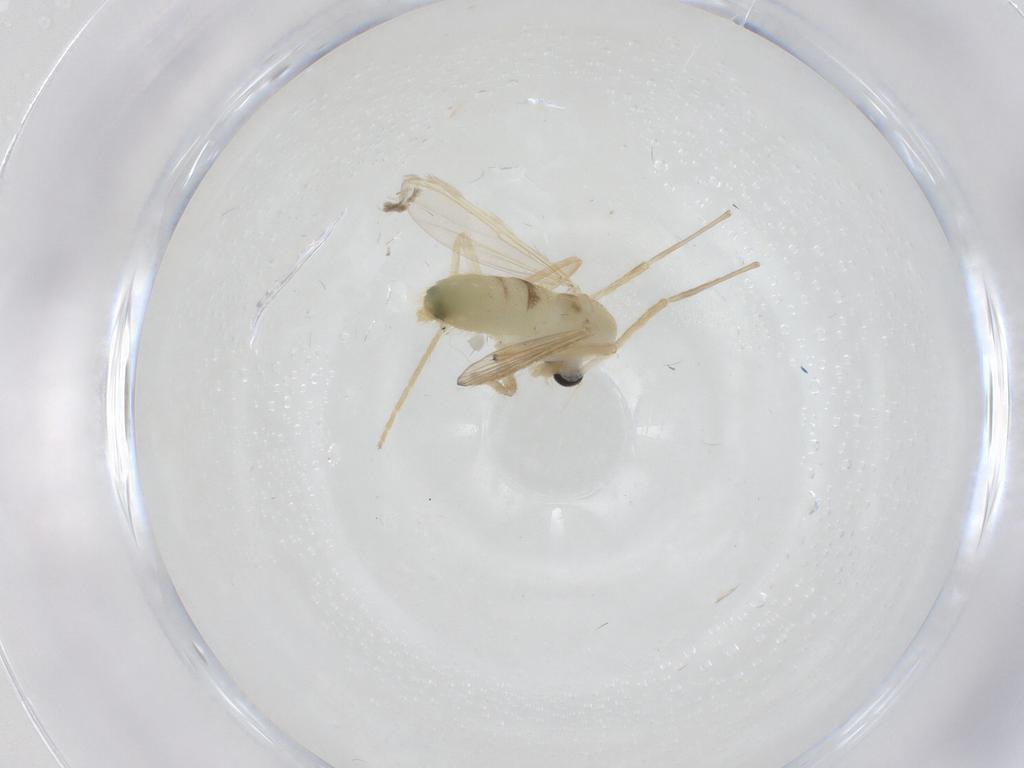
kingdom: Animalia
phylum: Arthropoda
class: Insecta
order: Diptera
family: Chironomidae
